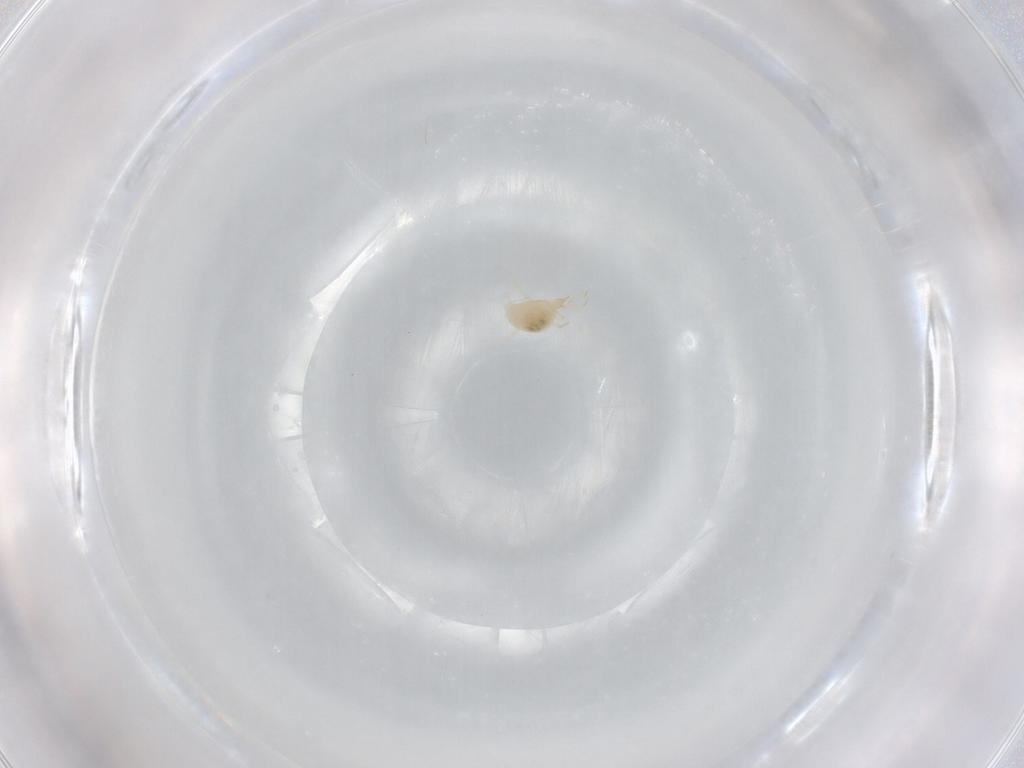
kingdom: Animalia
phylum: Arthropoda
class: Arachnida
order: Trombidiformes
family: Cunaxidae
